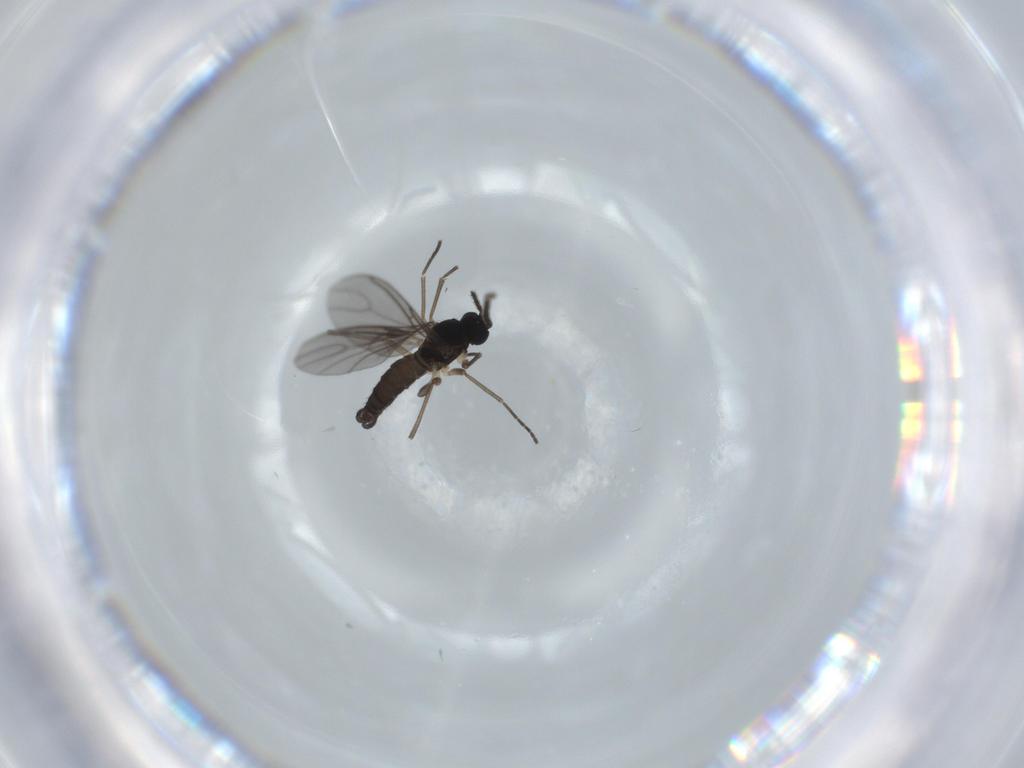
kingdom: Animalia
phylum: Arthropoda
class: Insecta
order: Diptera
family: Sciaridae
